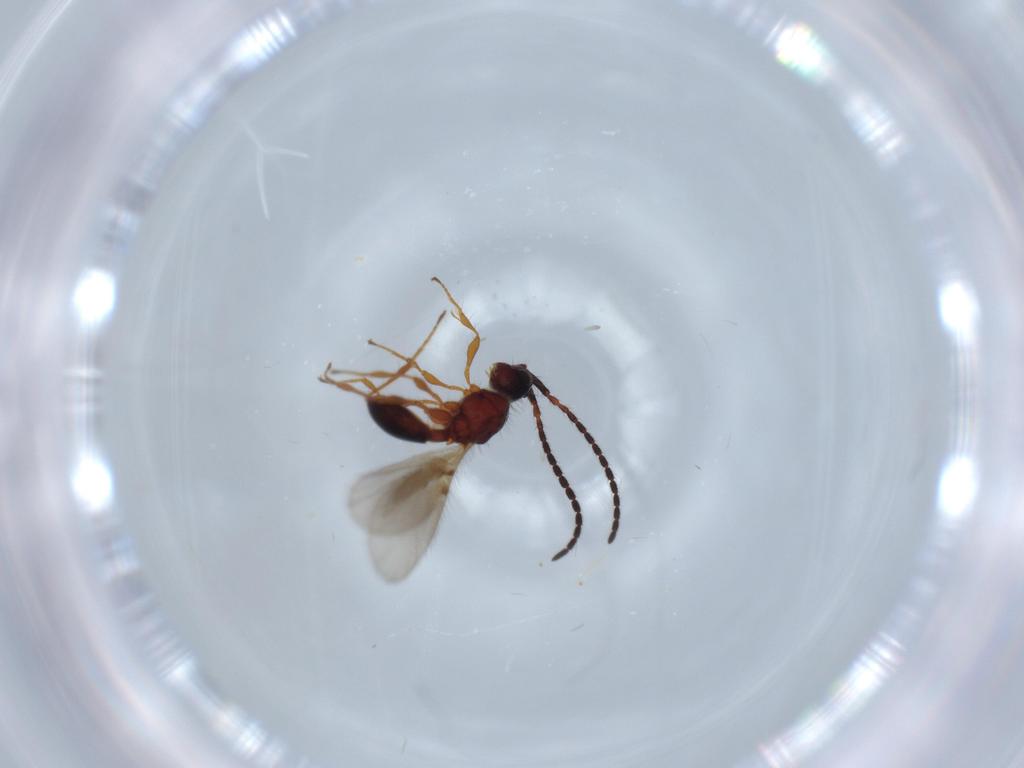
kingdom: Animalia
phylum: Arthropoda
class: Insecta
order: Hymenoptera
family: Diapriidae
